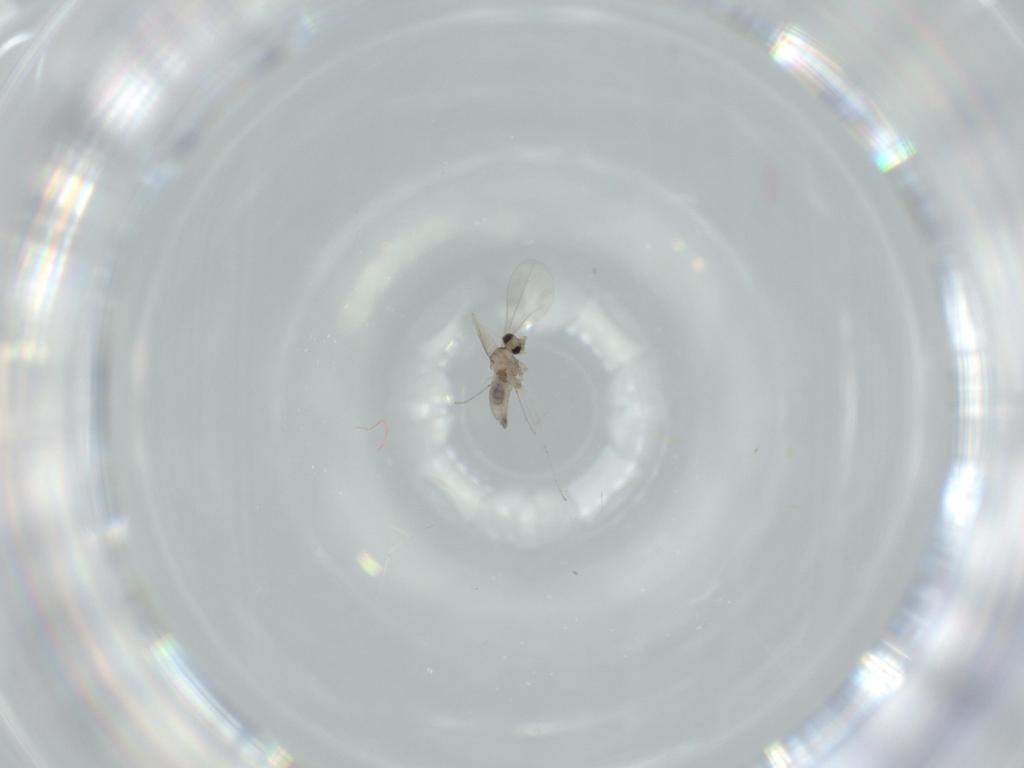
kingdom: Animalia
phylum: Arthropoda
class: Insecta
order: Diptera
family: Cecidomyiidae
